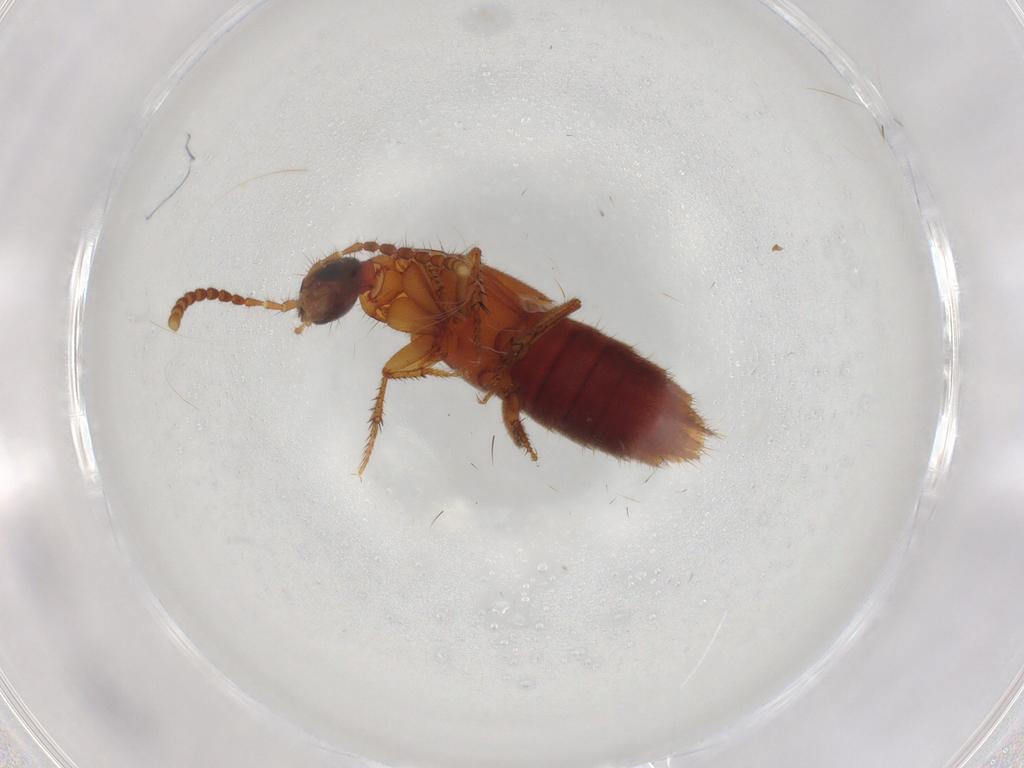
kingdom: Animalia
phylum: Arthropoda
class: Insecta
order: Coleoptera
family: Staphylinidae
